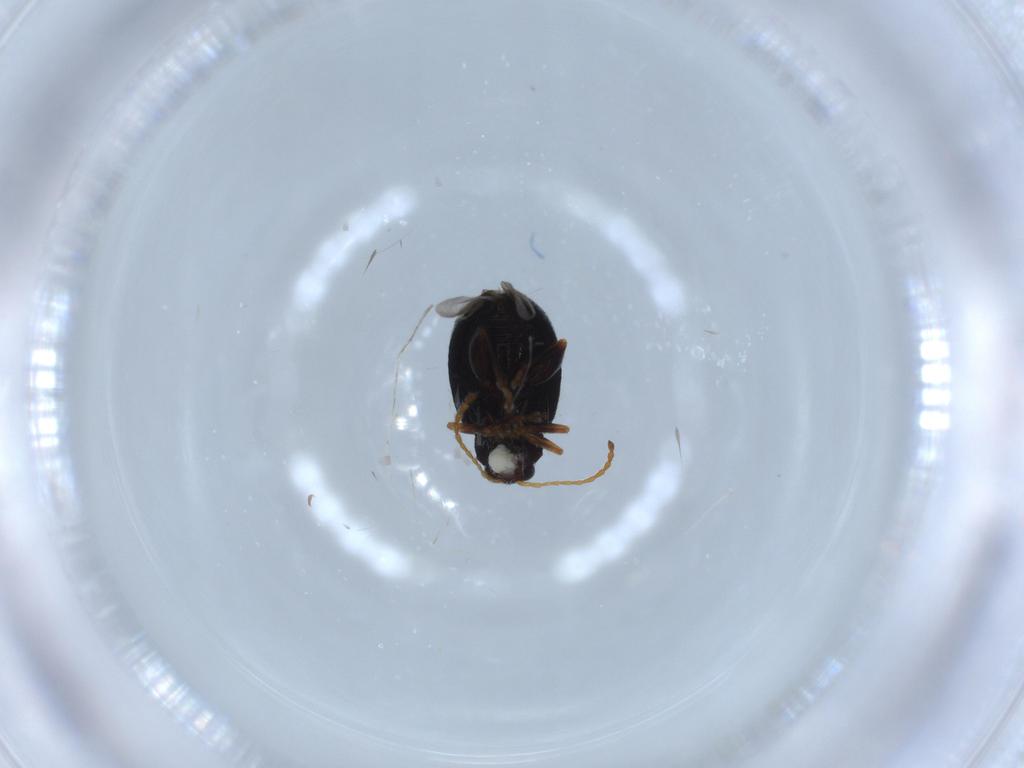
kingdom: Animalia
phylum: Arthropoda
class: Insecta
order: Coleoptera
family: Chrysomelidae
